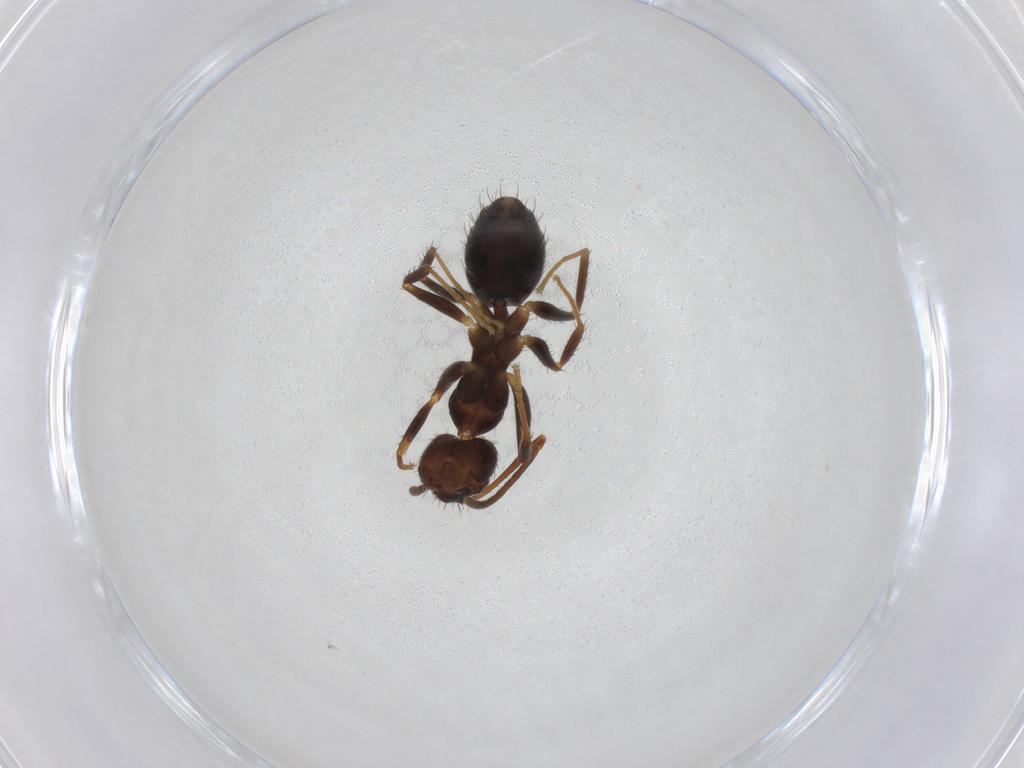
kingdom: Animalia
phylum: Arthropoda
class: Insecta
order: Hymenoptera
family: Formicidae
